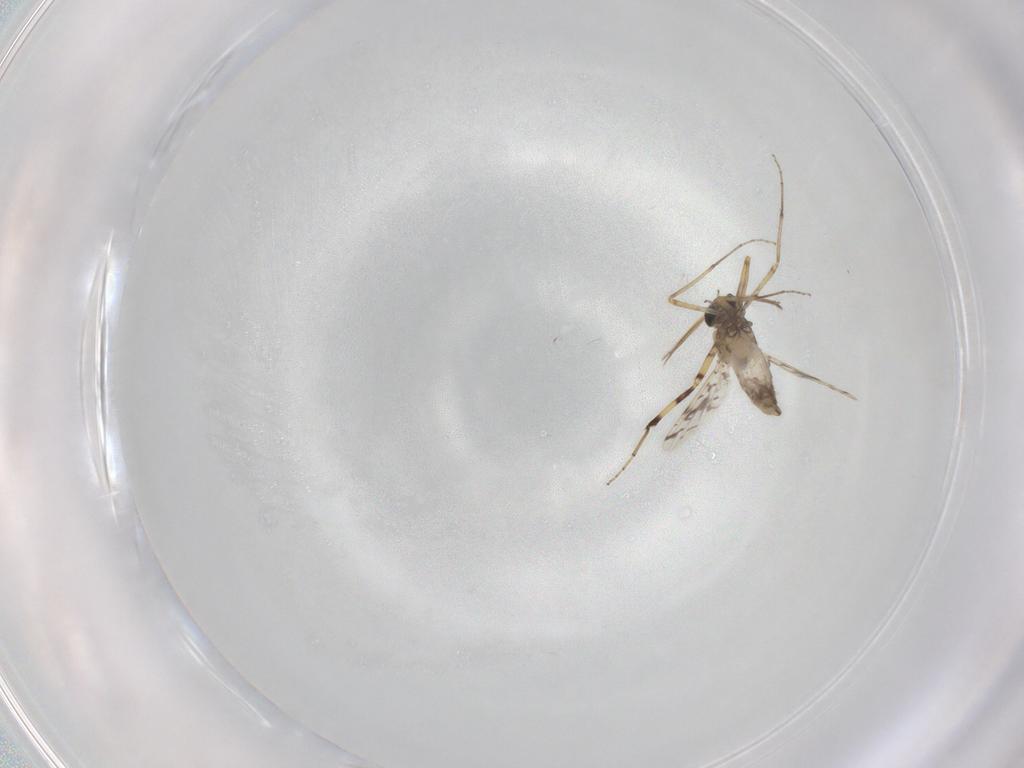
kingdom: Animalia
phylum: Arthropoda
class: Insecta
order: Diptera
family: Ceratopogonidae
